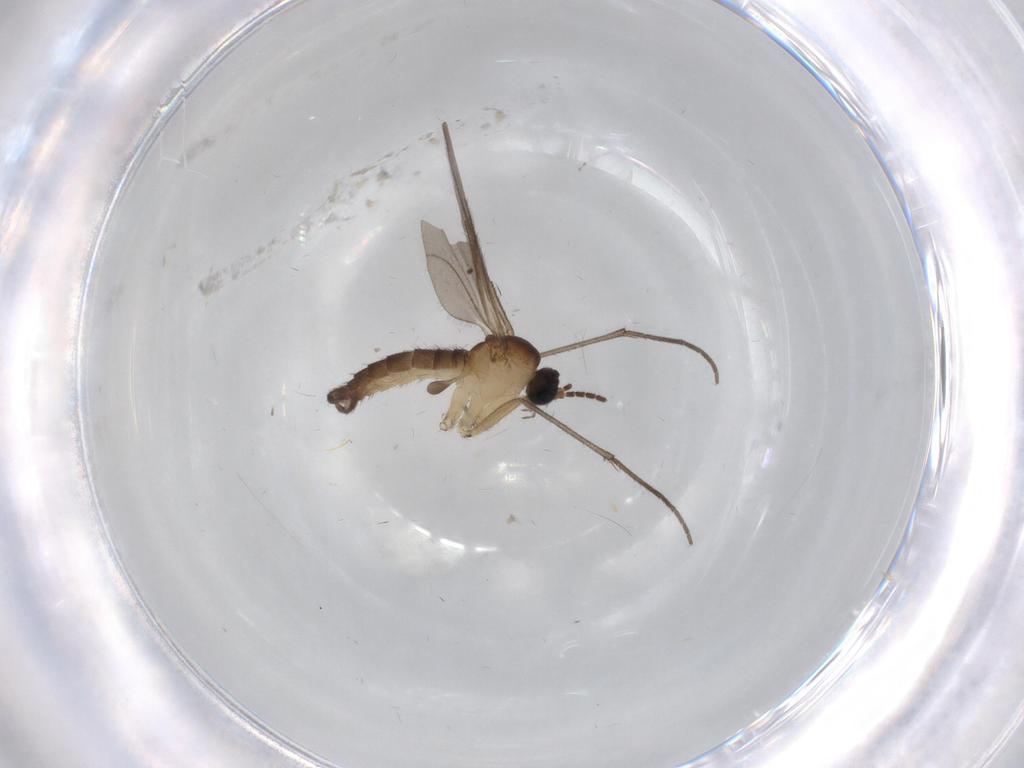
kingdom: Animalia
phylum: Arthropoda
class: Insecta
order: Diptera
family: Sciaridae
